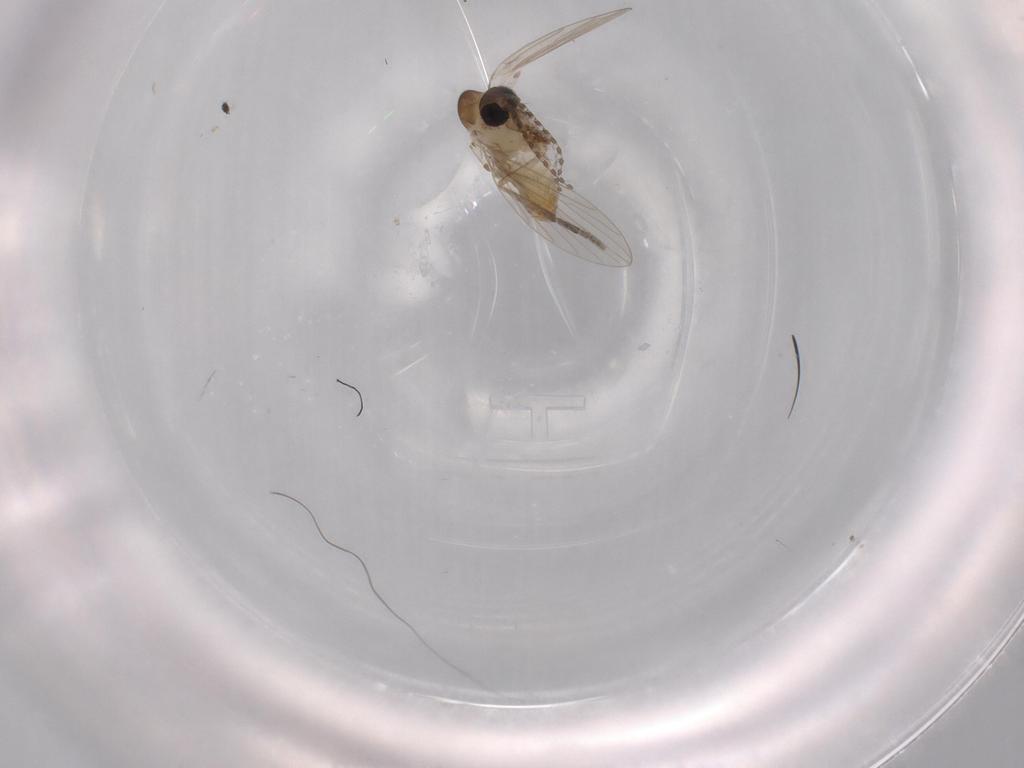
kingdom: Animalia
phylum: Arthropoda
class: Insecta
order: Diptera
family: Hybotidae
